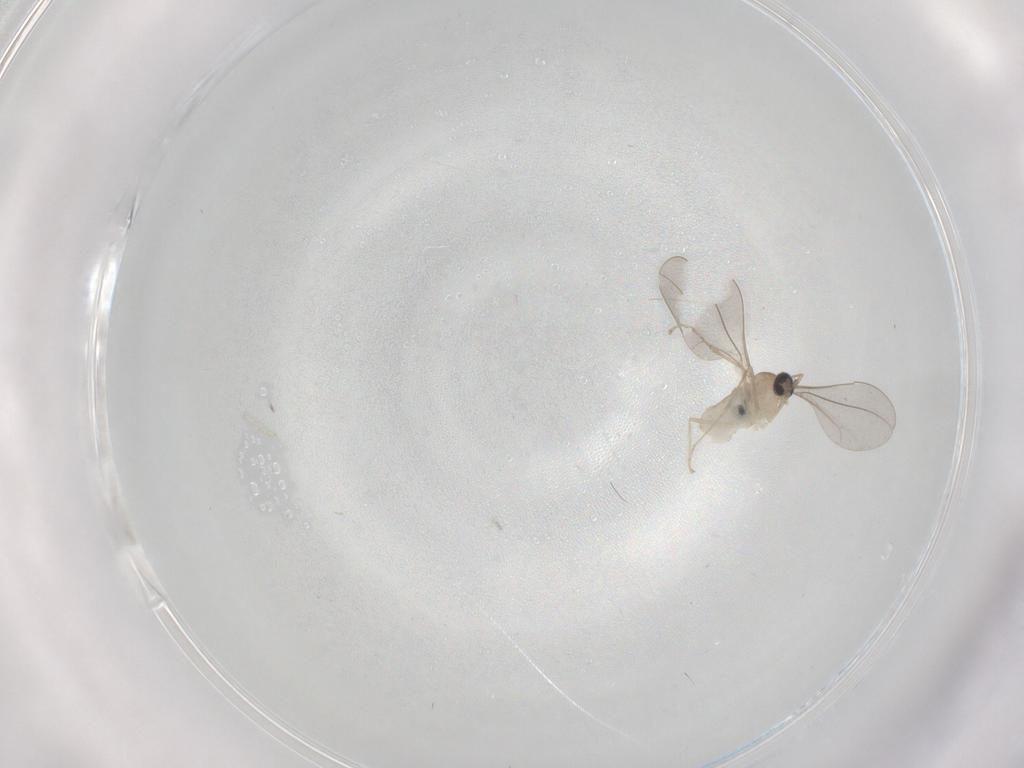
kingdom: Animalia
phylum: Arthropoda
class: Insecta
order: Diptera
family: Cecidomyiidae
